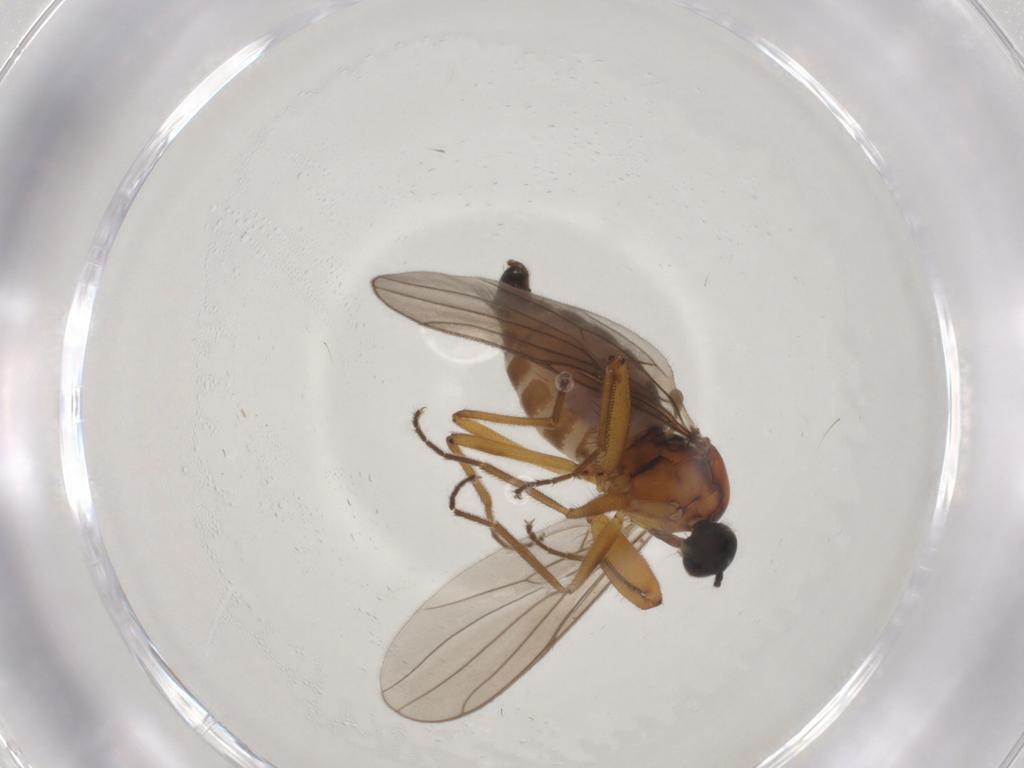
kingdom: Animalia
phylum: Arthropoda
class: Insecta
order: Diptera
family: Hybotidae
